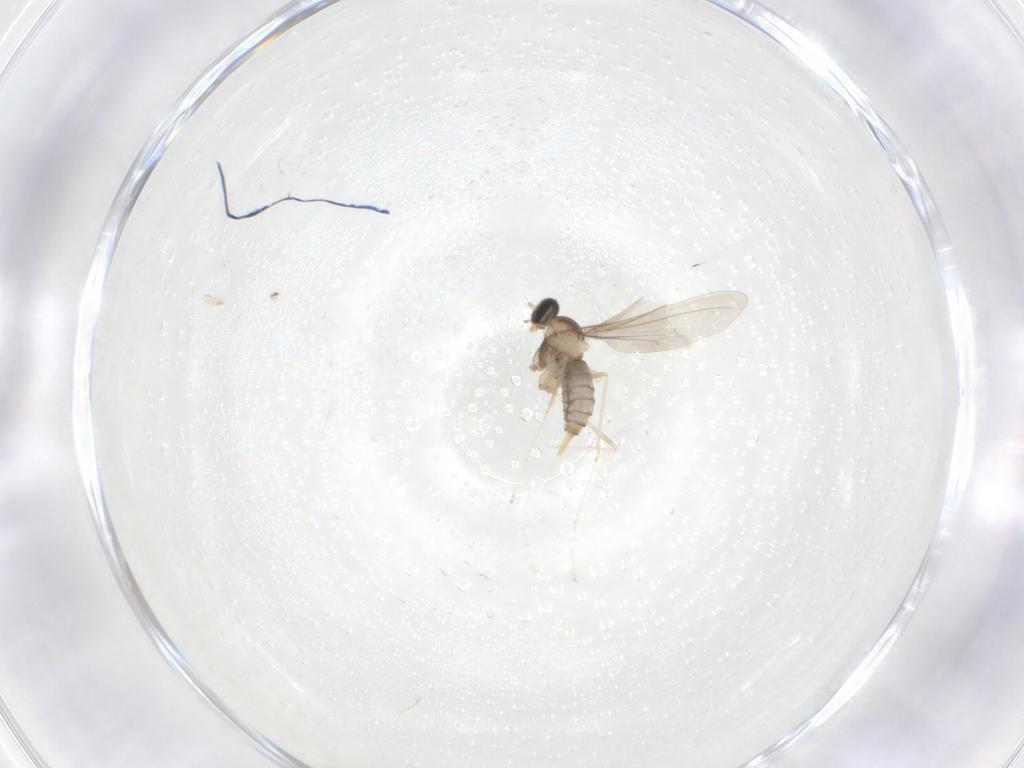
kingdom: Animalia
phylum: Arthropoda
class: Insecta
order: Diptera
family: Cecidomyiidae
